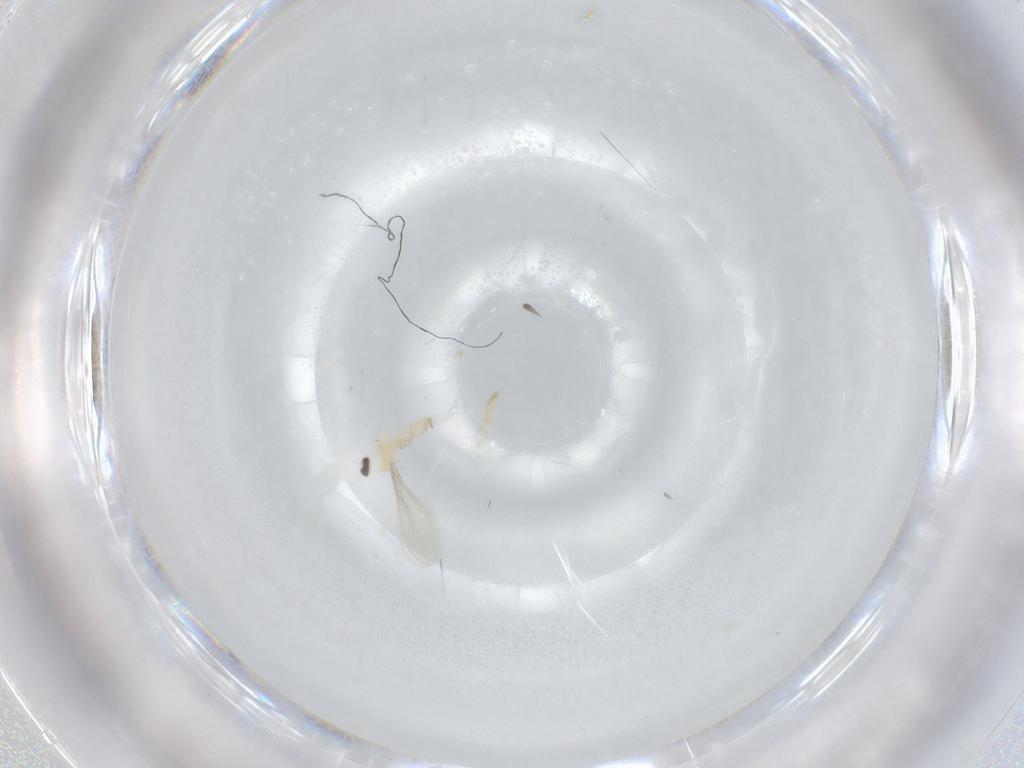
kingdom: Animalia
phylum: Arthropoda
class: Insecta
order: Diptera
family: Cecidomyiidae
